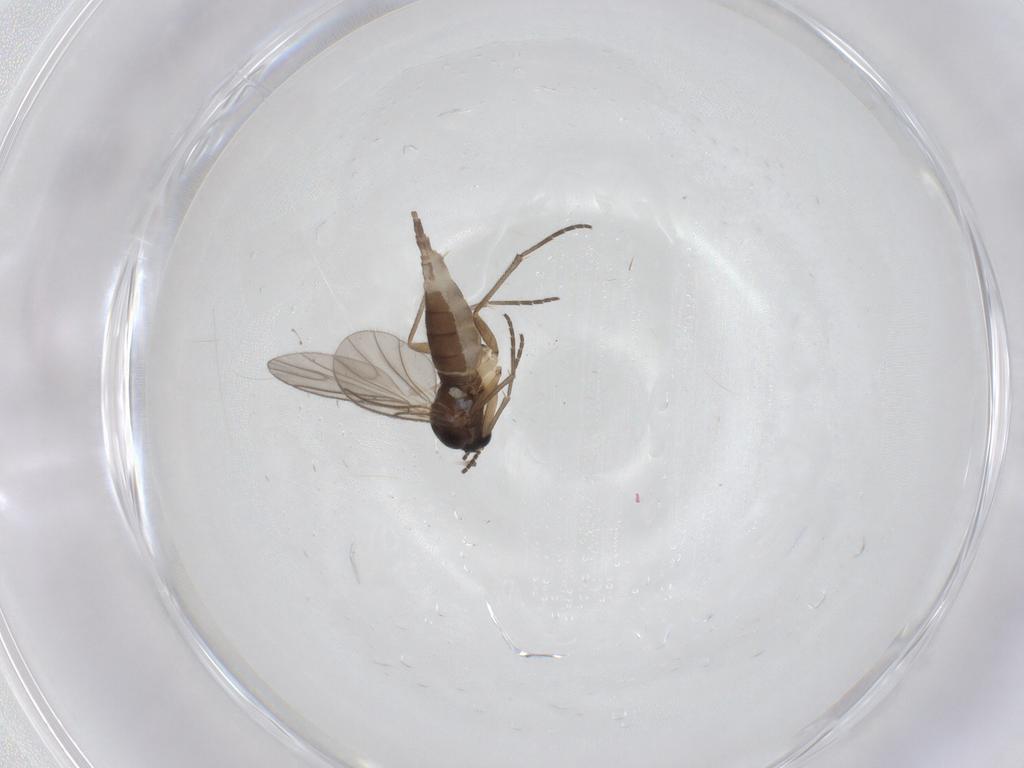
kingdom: Animalia
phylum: Arthropoda
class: Insecta
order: Diptera
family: Sciaridae
